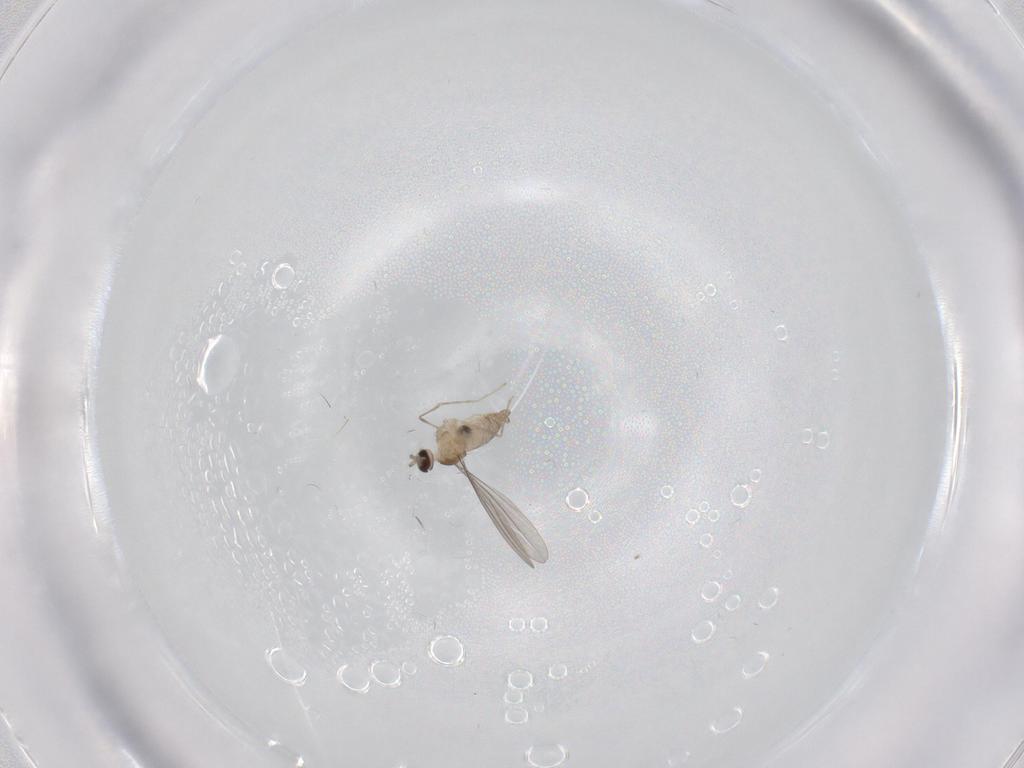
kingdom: Animalia
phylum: Arthropoda
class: Insecta
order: Diptera
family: Cecidomyiidae
